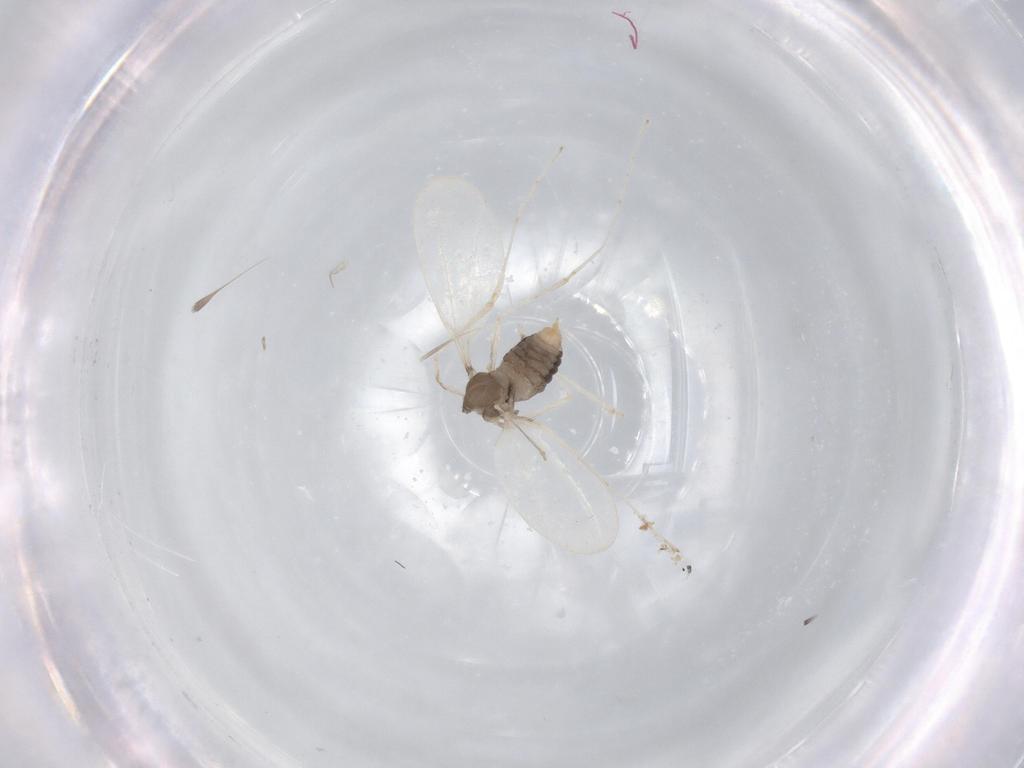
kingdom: Animalia
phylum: Arthropoda
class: Insecta
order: Diptera
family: Cecidomyiidae
